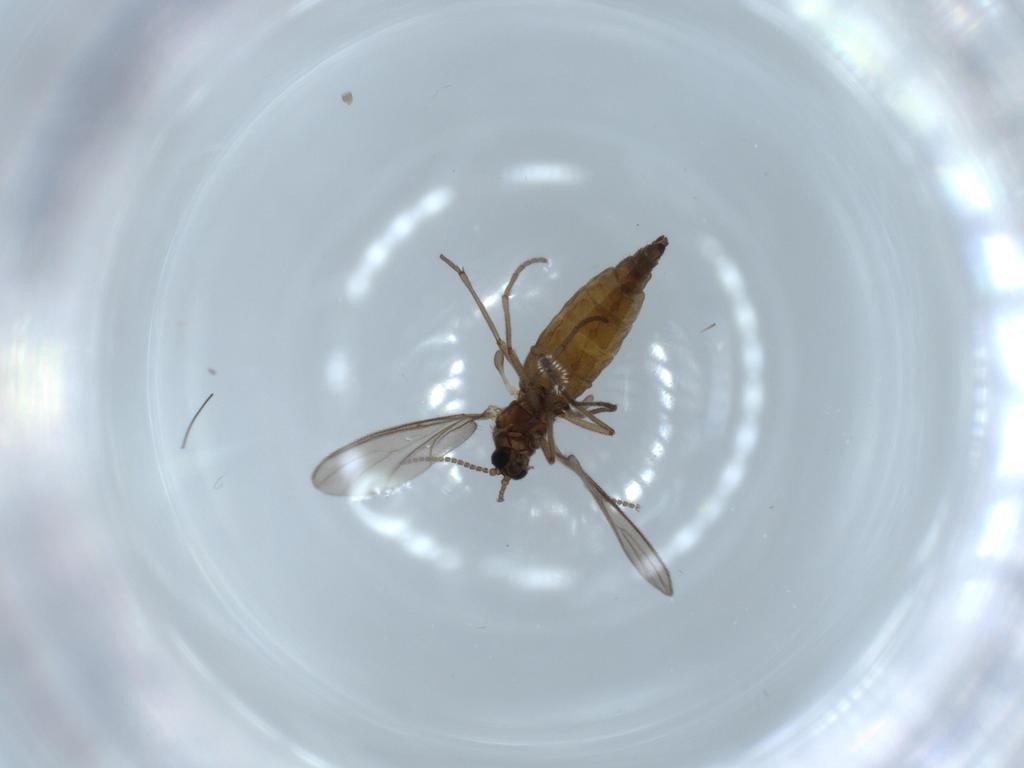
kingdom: Animalia
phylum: Arthropoda
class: Insecta
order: Diptera
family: Sciaridae
